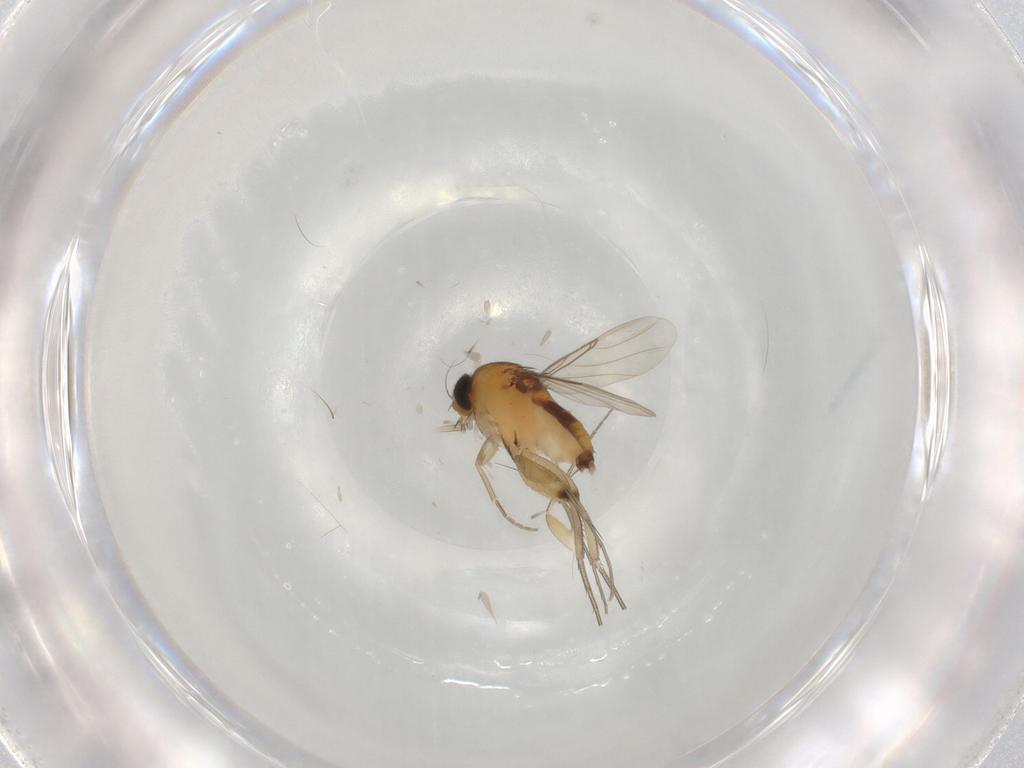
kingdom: Animalia
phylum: Arthropoda
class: Insecta
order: Diptera
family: Phoridae
